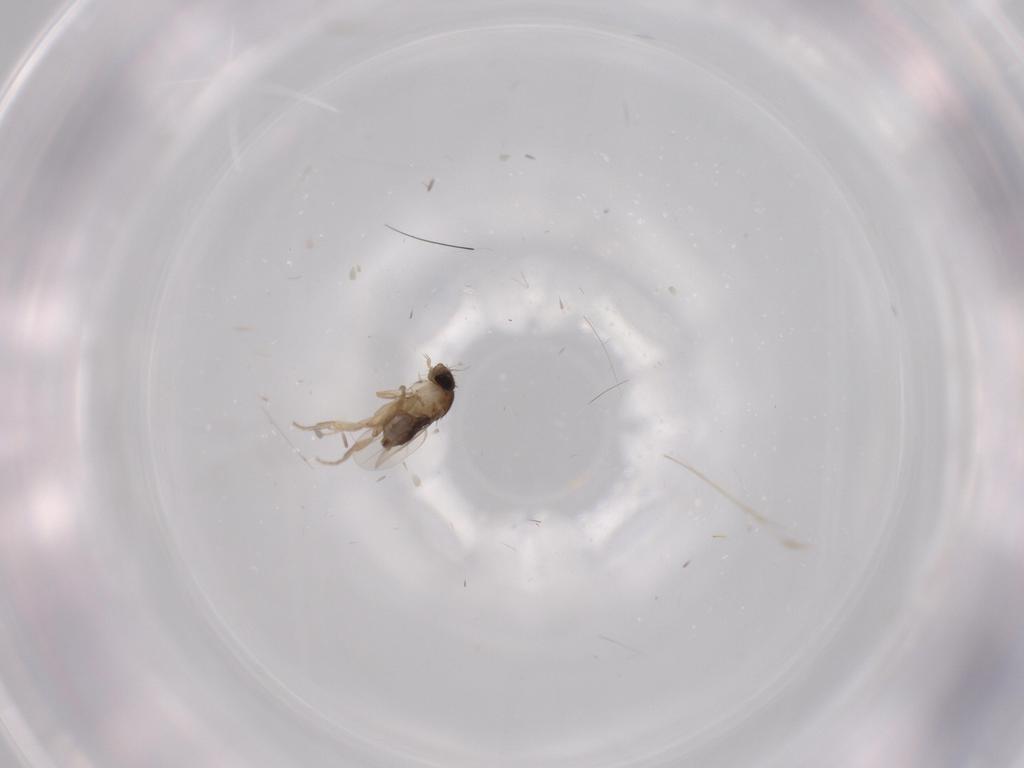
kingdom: Animalia
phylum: Arthropoda
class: Insecta
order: Diptera
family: Phoridae
